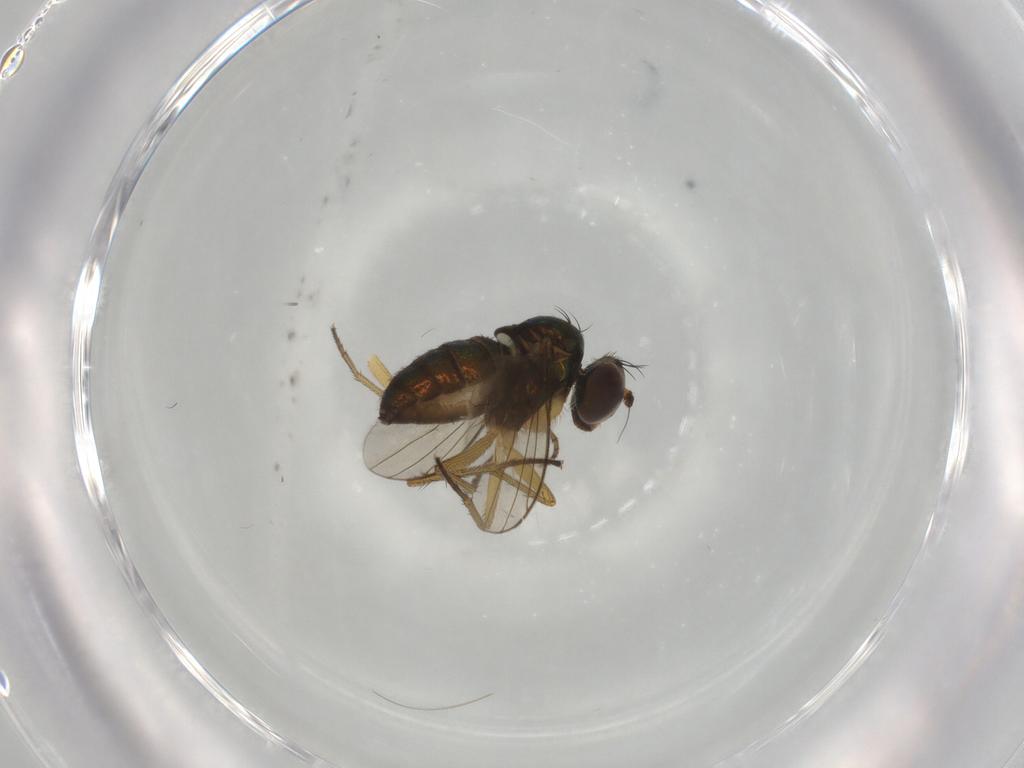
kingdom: Animalia
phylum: Arthropoda
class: Insecta
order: Diptera
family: Dolichopodidae
